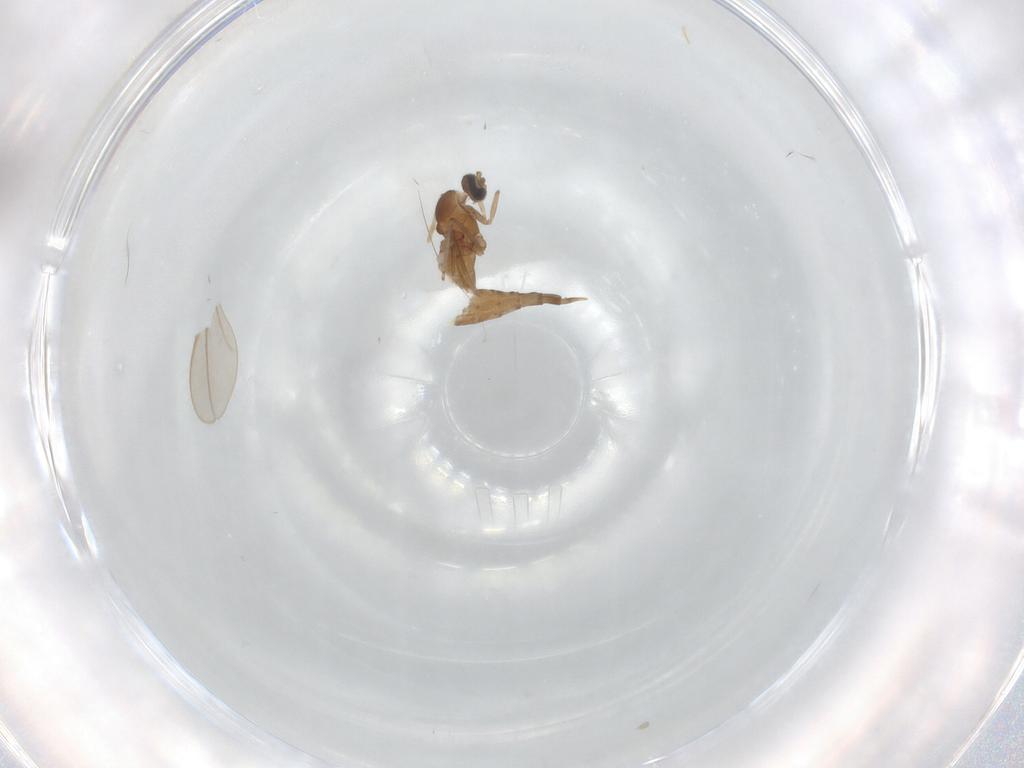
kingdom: Animalia
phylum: Arthropoda
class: Insecta
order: Diptera
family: Cecidomyiidae
